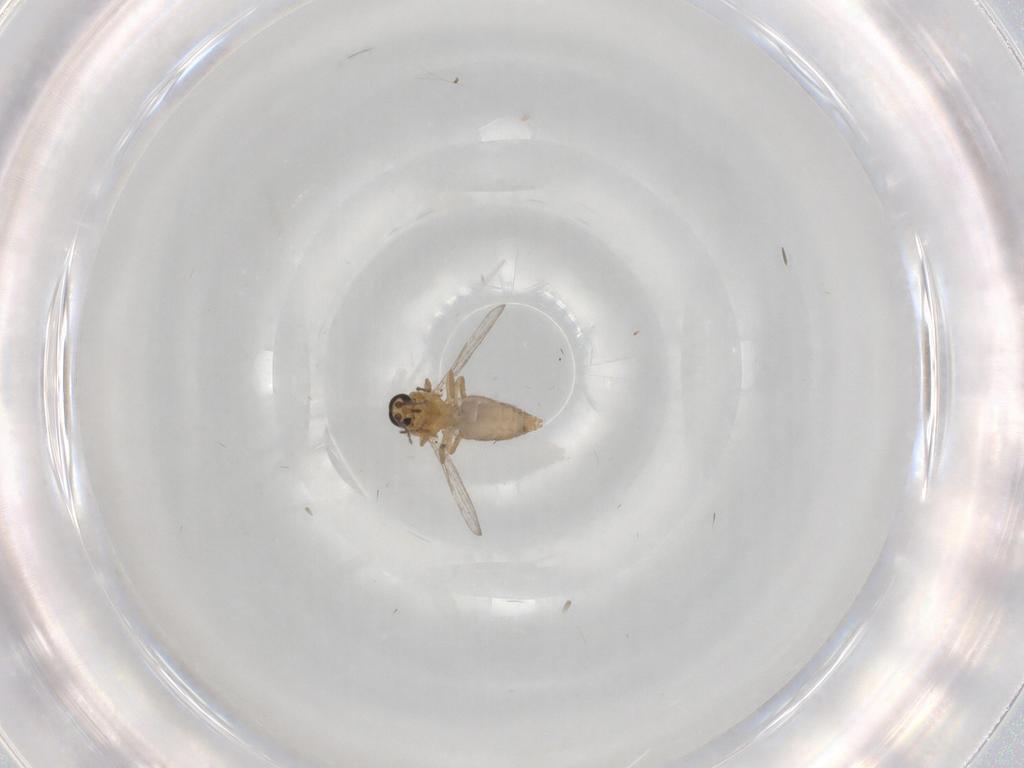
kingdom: Animalia
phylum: Arthropoda
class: Insecta
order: Diptera
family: Ceratopogonidae
